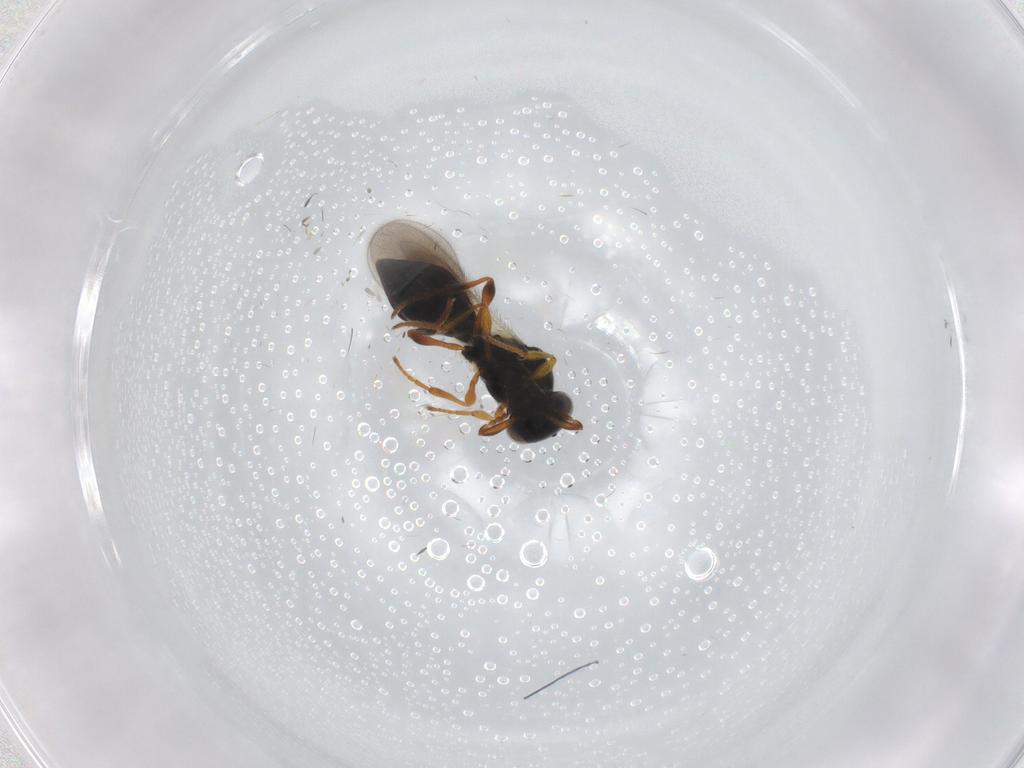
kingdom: Animalia
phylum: Arthropoda
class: Insecta
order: Hymenoptera
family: Platygastridae
